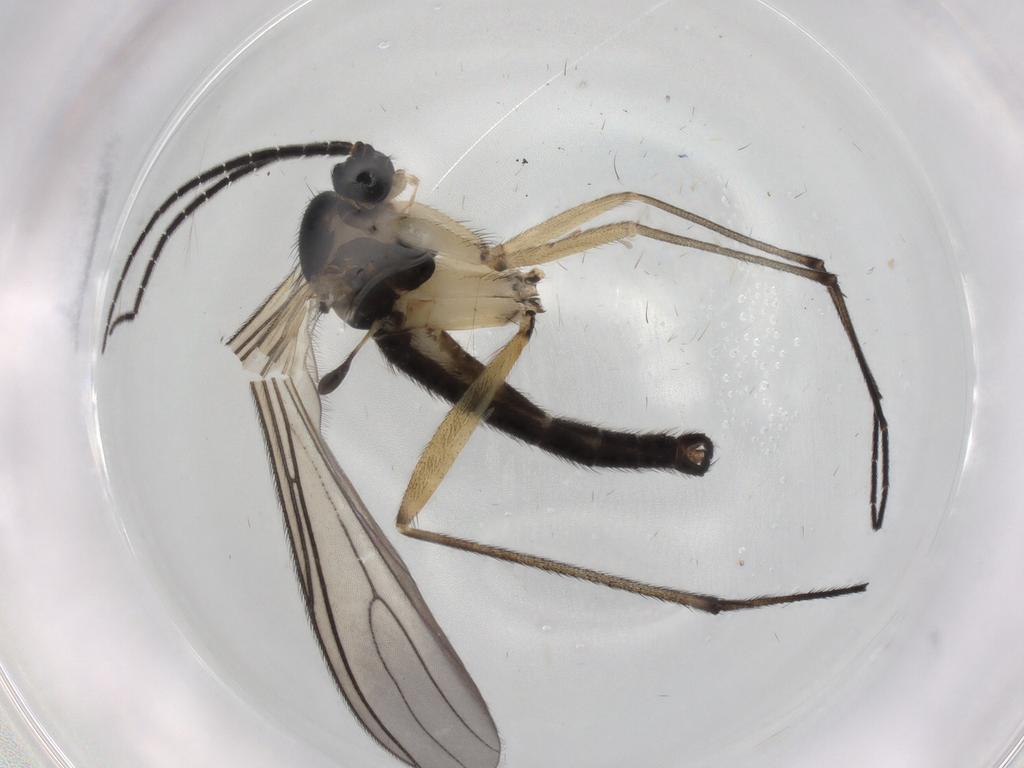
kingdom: Animalia
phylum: Arthropoda
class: Insecta
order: Diptera
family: Sciaridae
